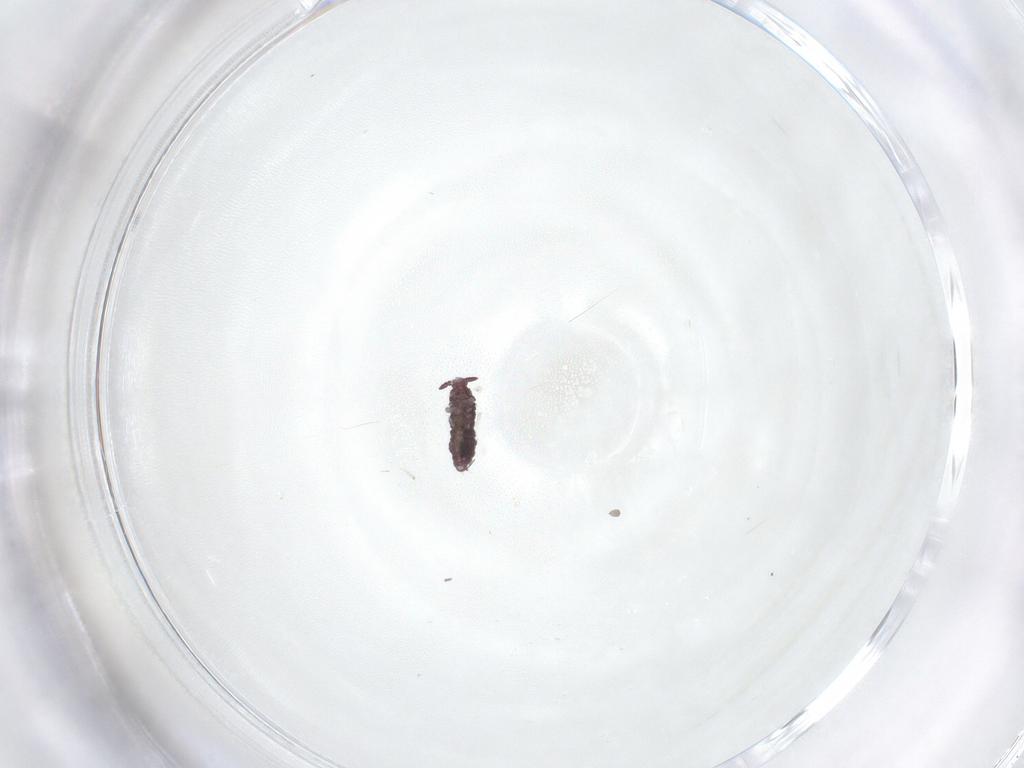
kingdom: Animalia
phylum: Arthropoda
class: Collembola
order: Poduromorpha
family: Hypogastruridae
